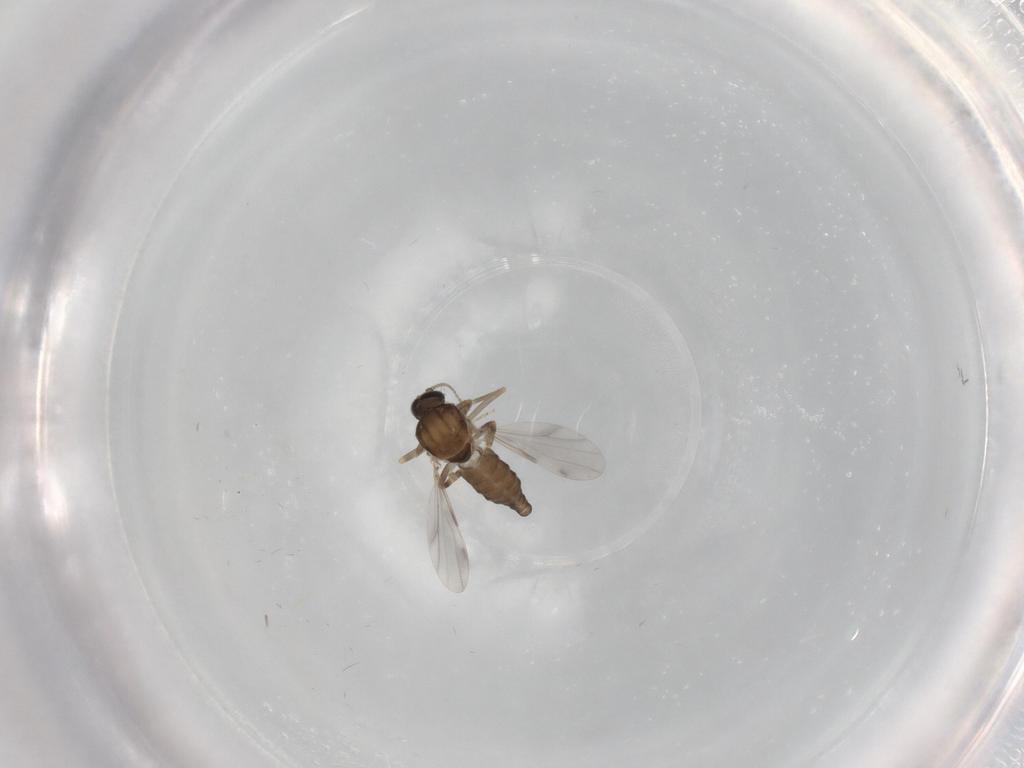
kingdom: Animalia
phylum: Arthropoda
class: Insecta
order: Diptera
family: Ceratopogonidae
